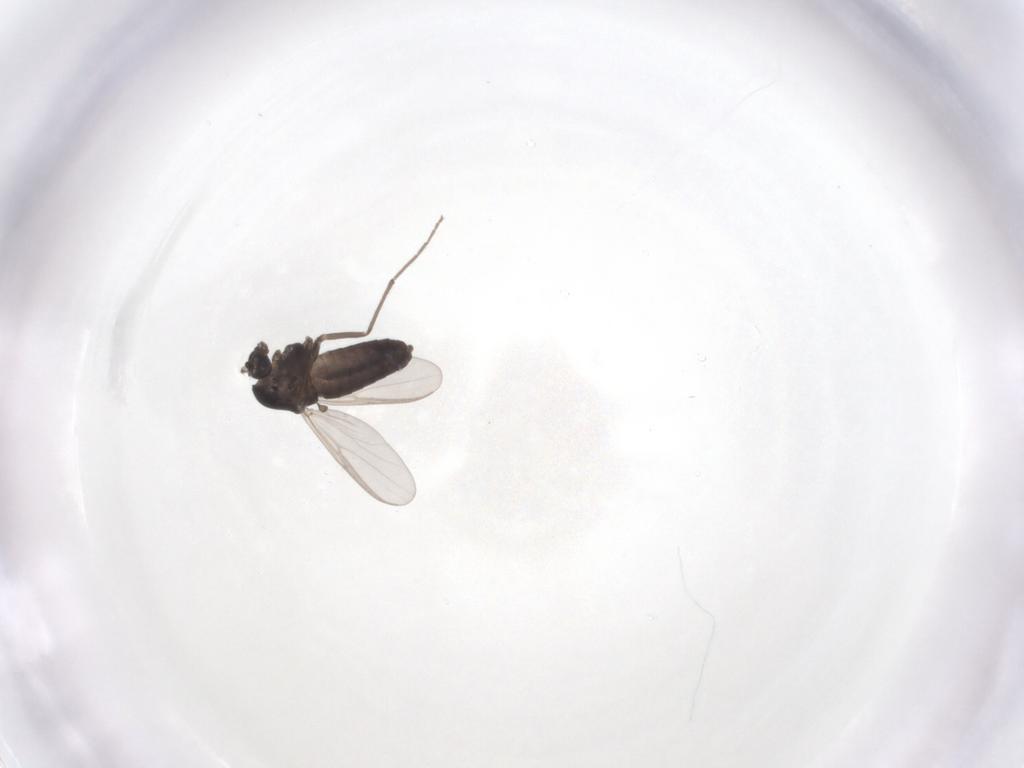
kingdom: Animalia
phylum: Arthropoda
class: Insecta
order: Diptera
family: Chironomidae
